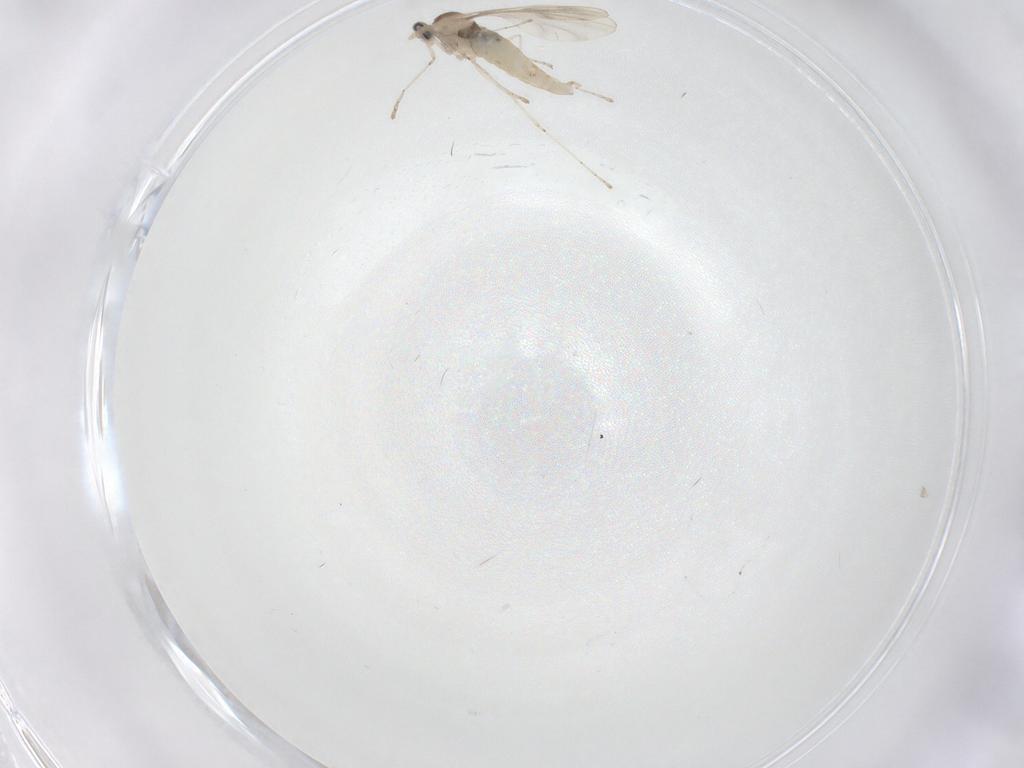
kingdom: Animalia
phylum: Arthropoda
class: Insecta
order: Diptera
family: Cecidomyiidae
